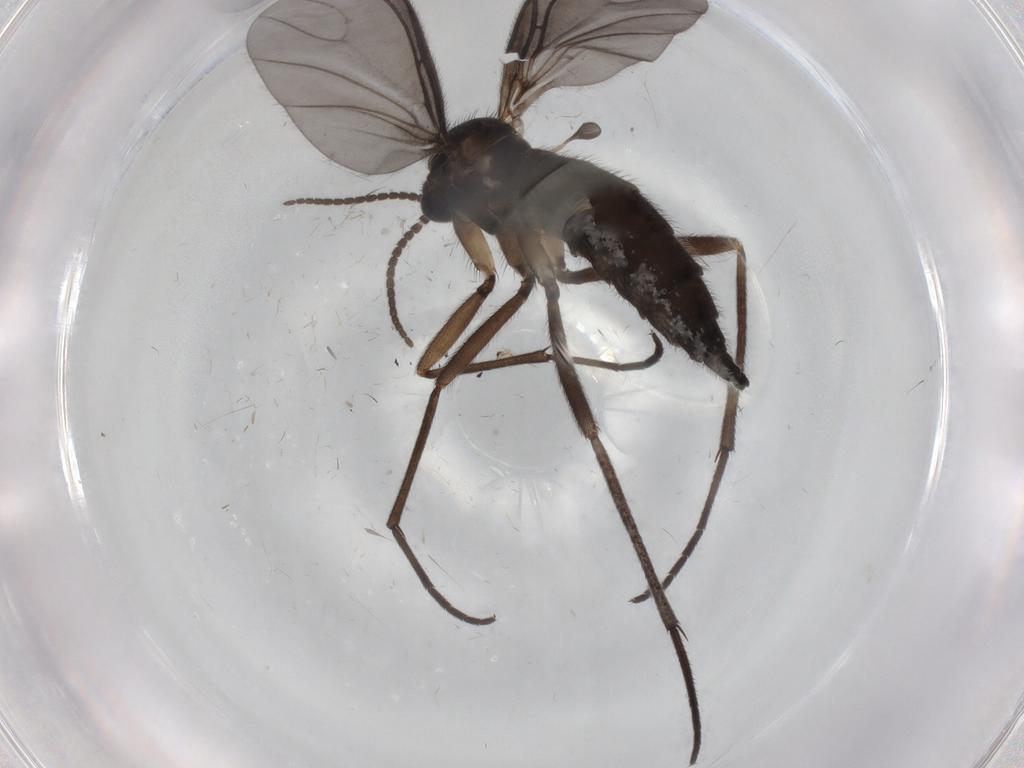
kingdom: Animalia
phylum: Arthropoda
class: Insecta
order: Diptera
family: Sciaridae
